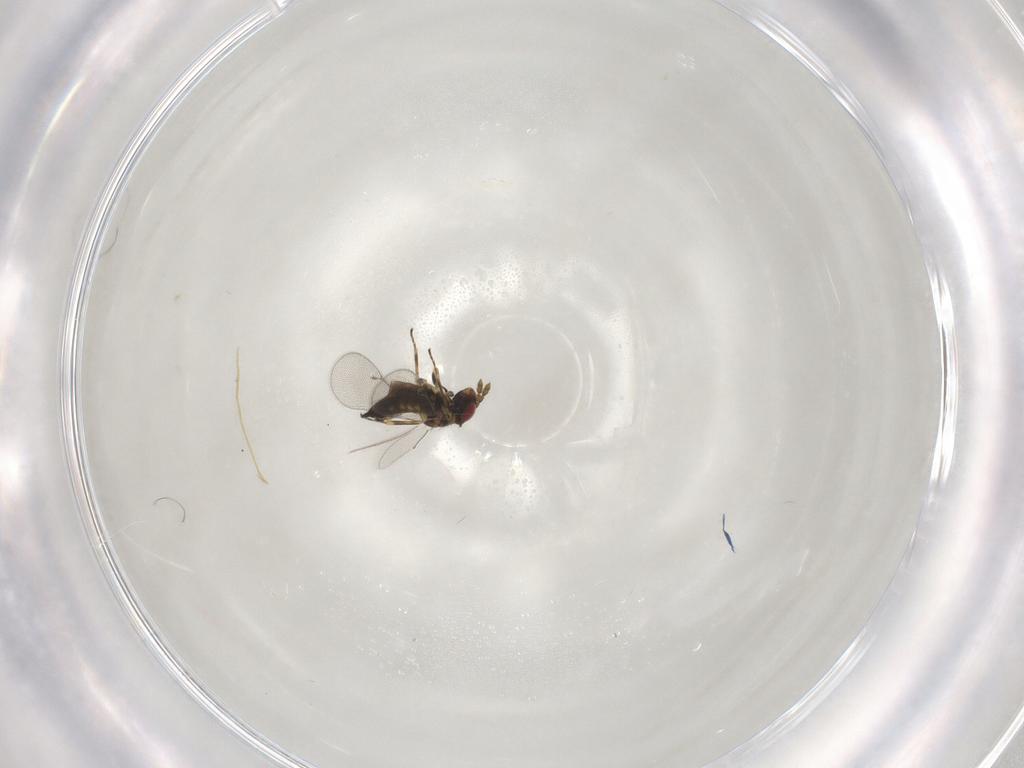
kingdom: Animalia
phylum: Arthropoda
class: Insecta
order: Hymenoptera
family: Eulophidae
